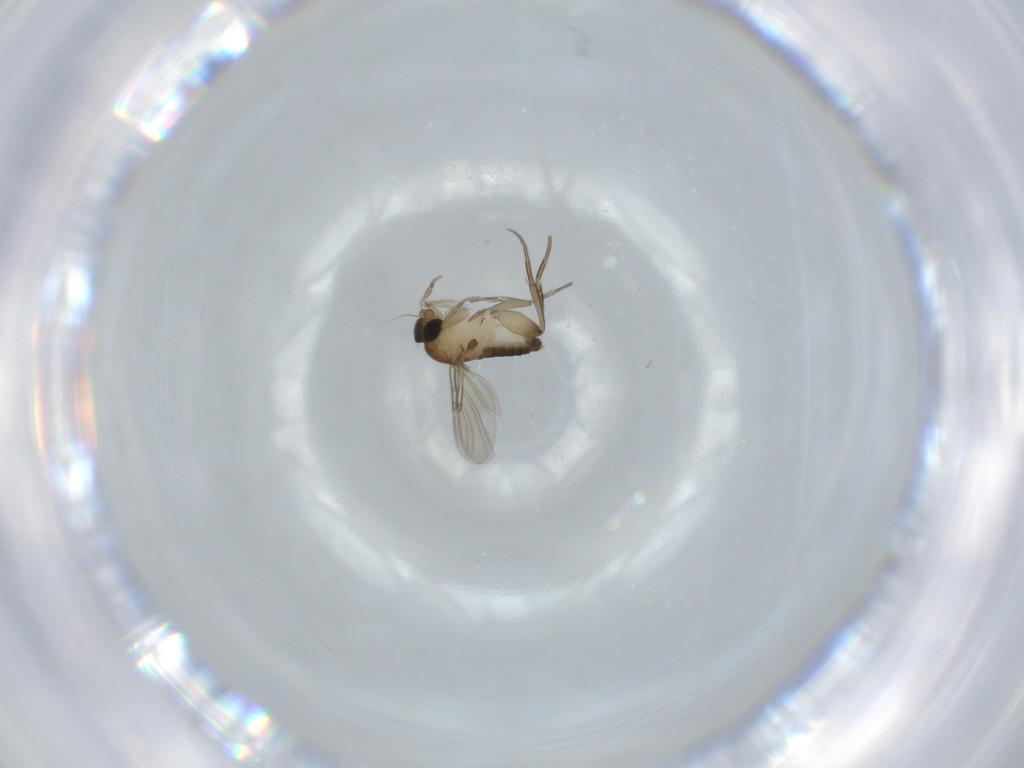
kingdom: Animalia
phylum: Arthropoda
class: Insecta
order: Diptera
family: Phoridae
